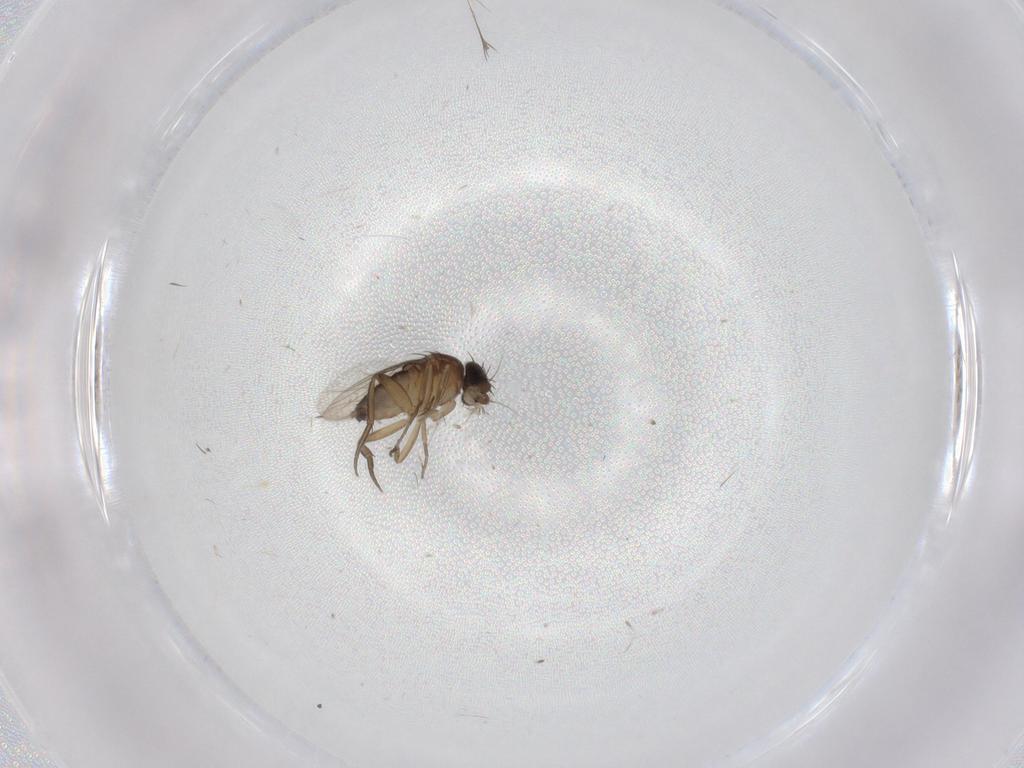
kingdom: Animalia
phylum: Arthropoda
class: Insecta
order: Diptera
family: Phoridae
